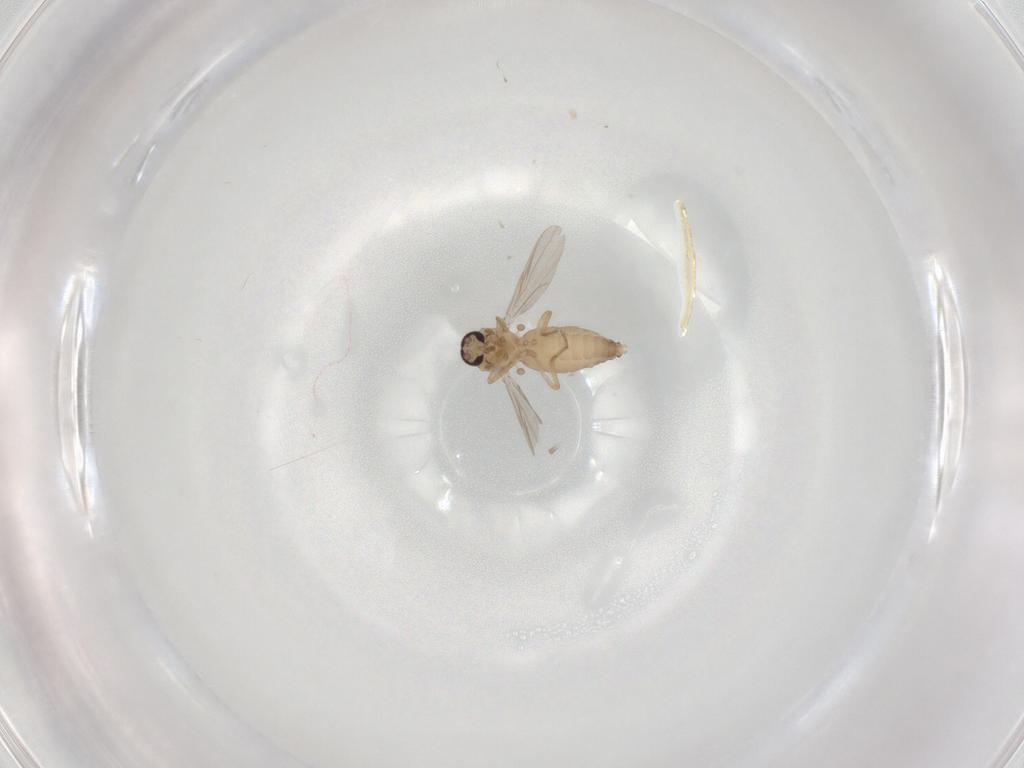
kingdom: Animalia
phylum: Arthropoda
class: Insecta
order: Diptera
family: Ceratopogonidae
